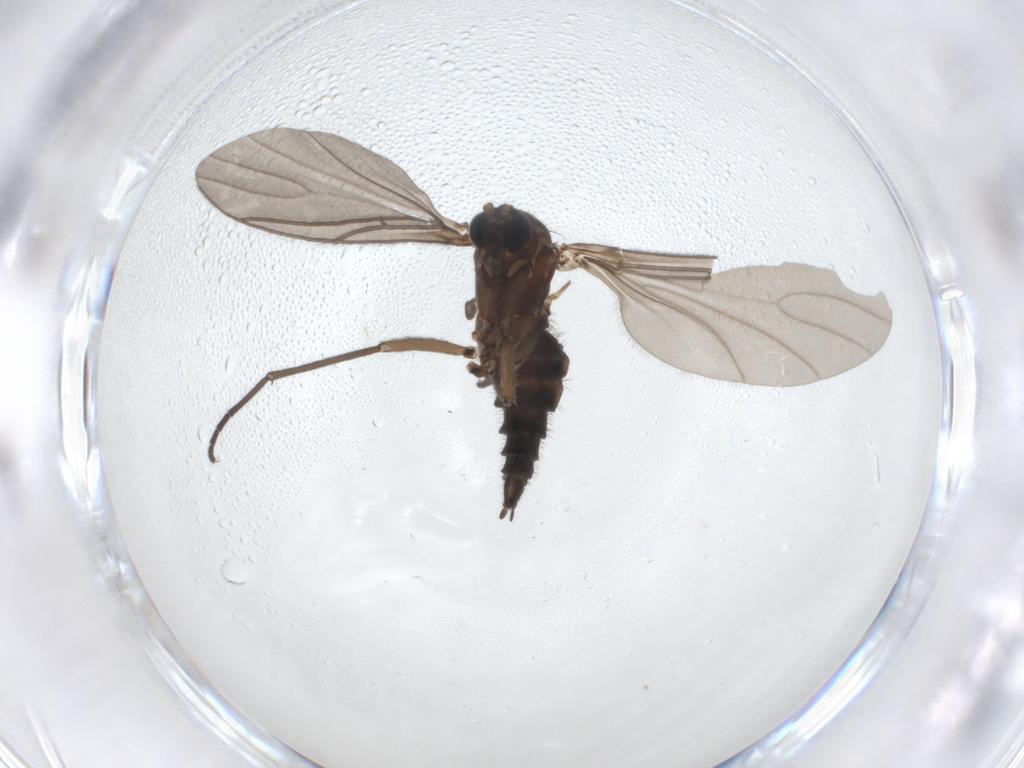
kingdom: Animalia
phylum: Arthropoda
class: Insecta
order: Diptera
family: Sciaridae
